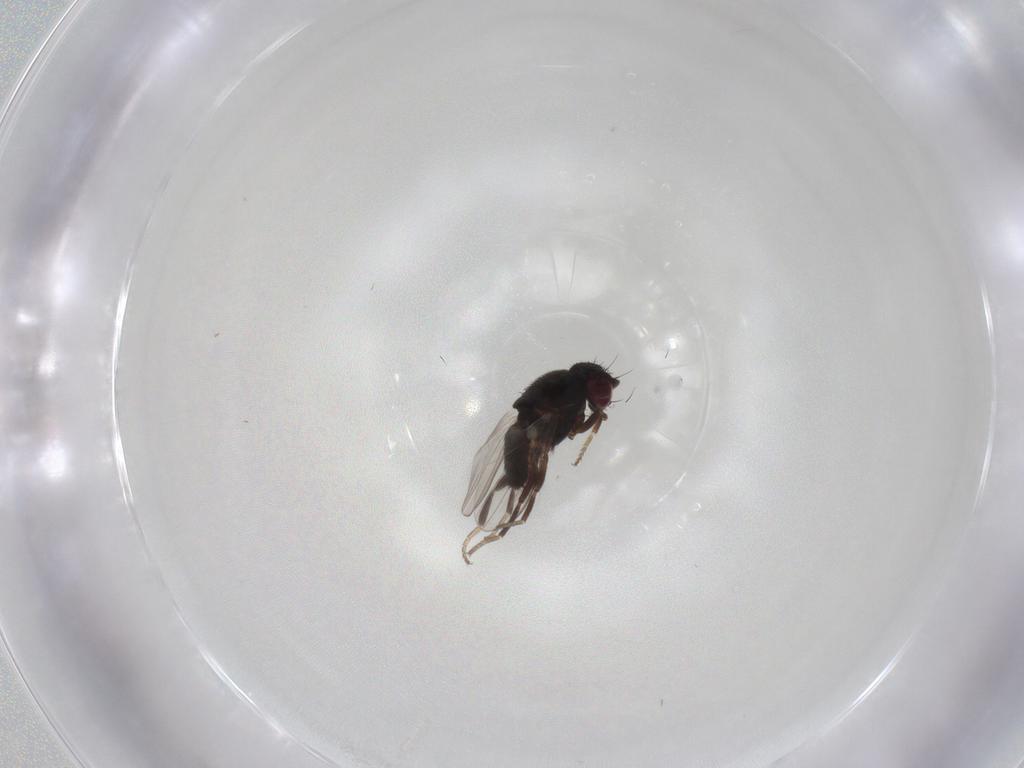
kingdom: Animalia
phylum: Arthropoda
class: Insecta
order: Diptera
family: Milichiidae
